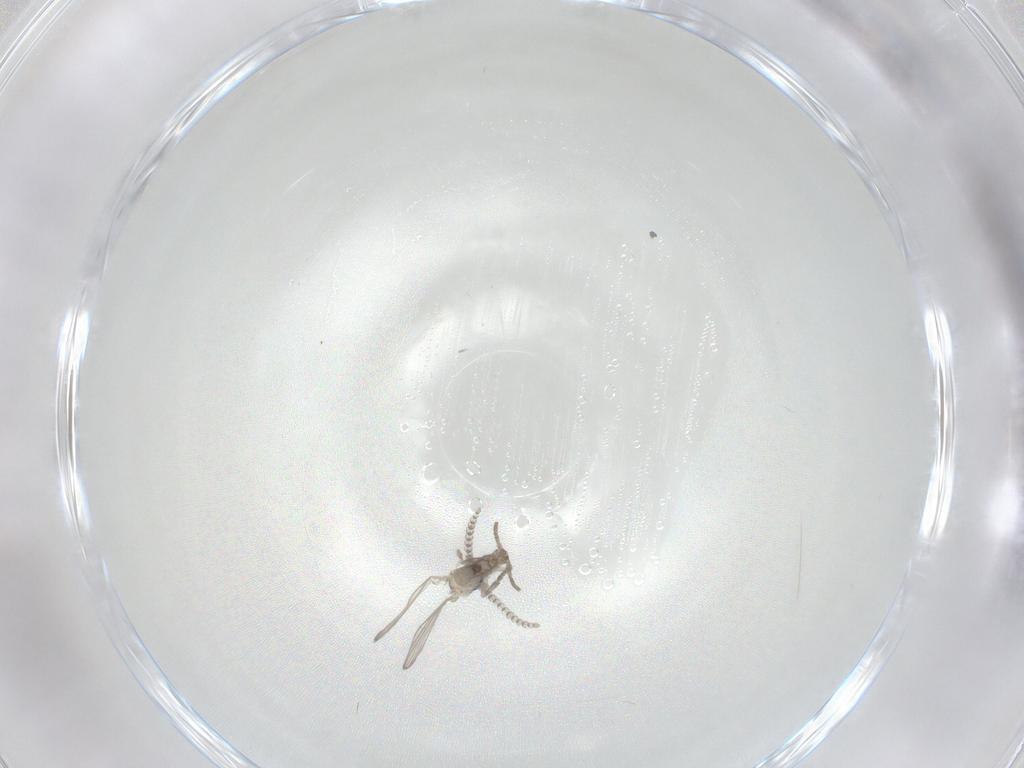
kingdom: Animalia
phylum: Arthropoda
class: Insecta
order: Diptera
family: Psychodidae
